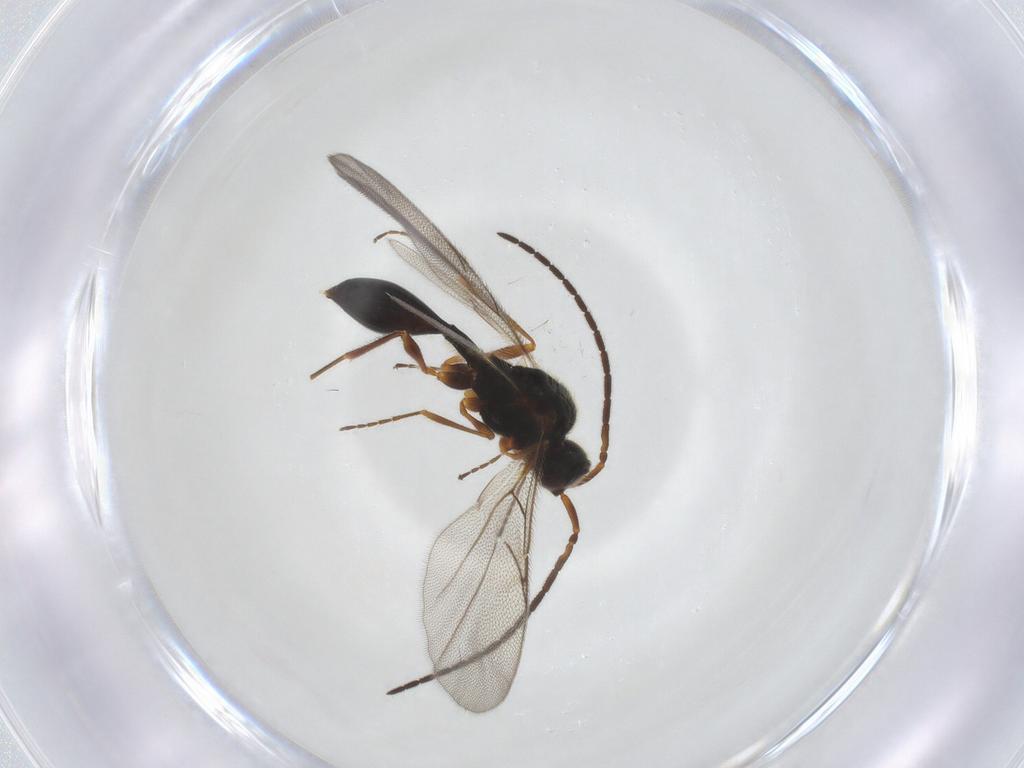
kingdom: Animalia
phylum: Arthropoda
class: Insecta
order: Hymenoptera
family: Diapriidae
